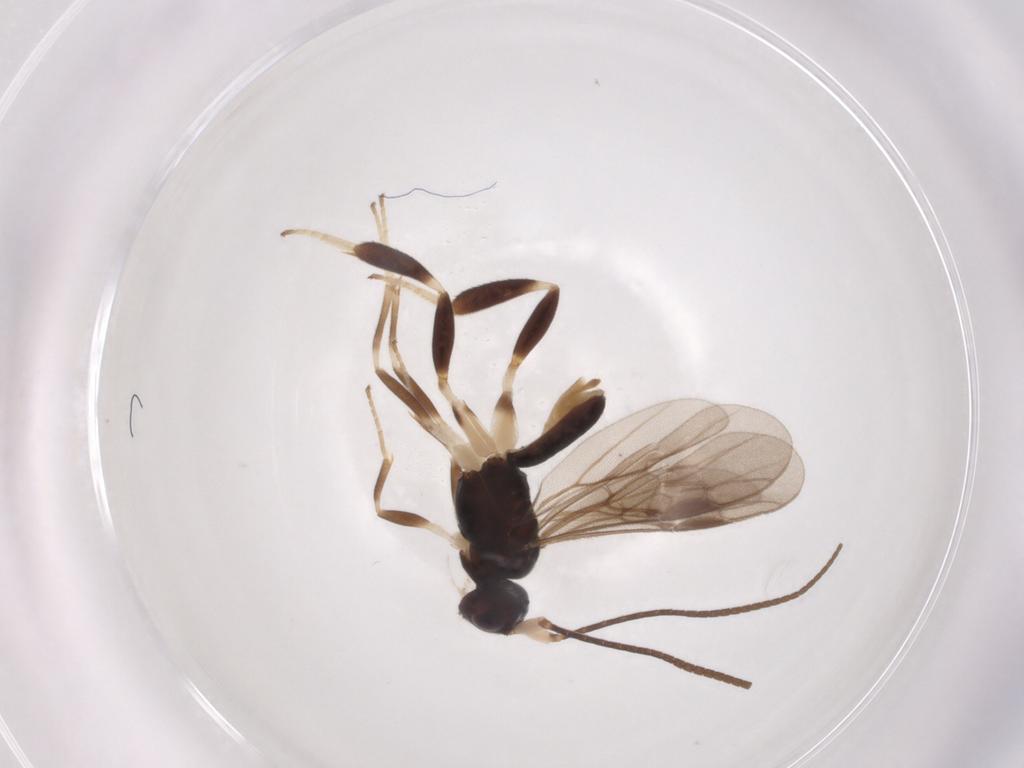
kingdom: Animalia
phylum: Arthropoda
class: Insecta
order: Hymenoptera
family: Braconidae
